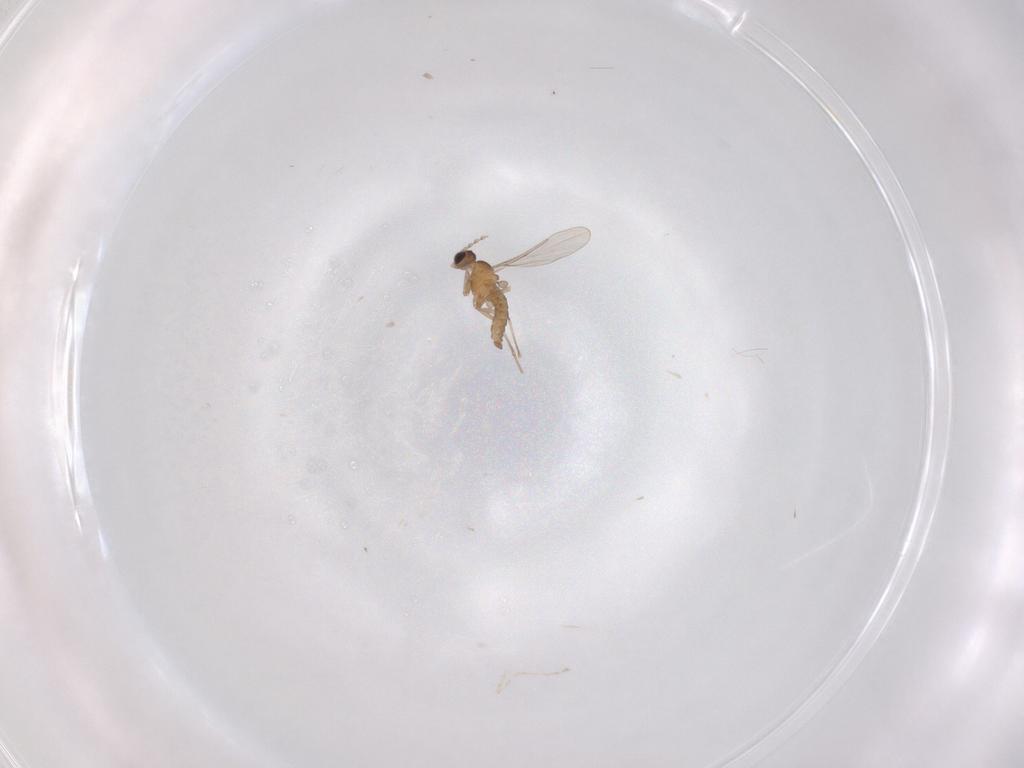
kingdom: Animalia
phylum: Arthropoda
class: Insecta
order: Diptera
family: Cecidomyiidae
